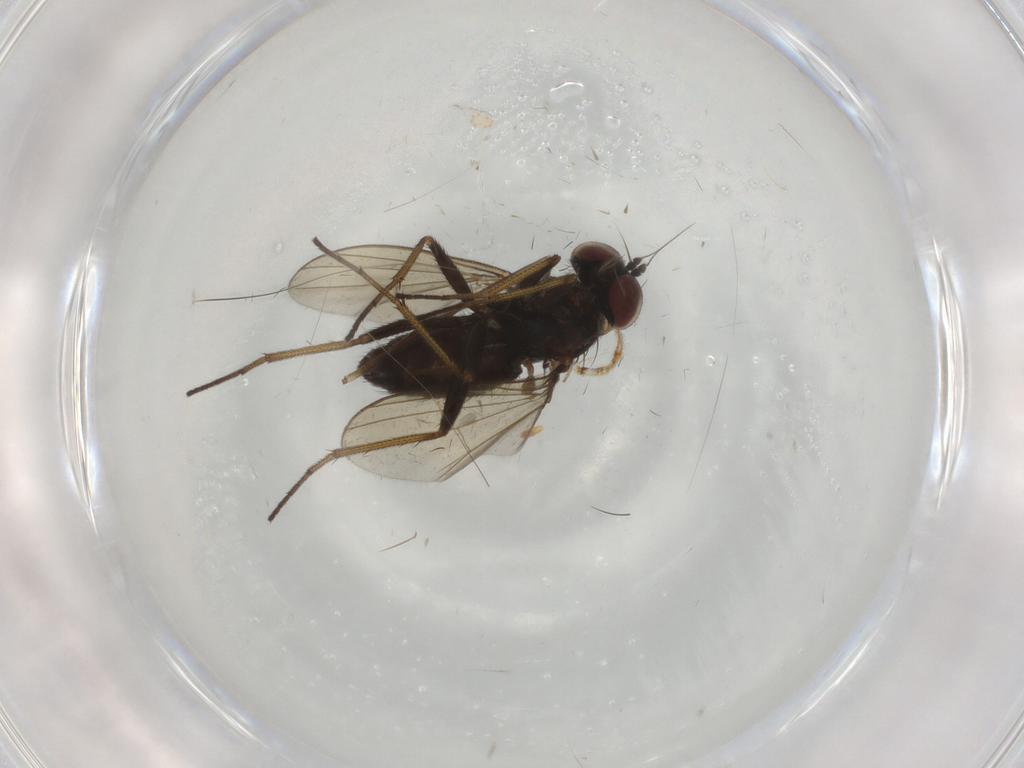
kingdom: Animalia
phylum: Arthropoda
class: Insecta
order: Diptera
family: Dolichopodidae
